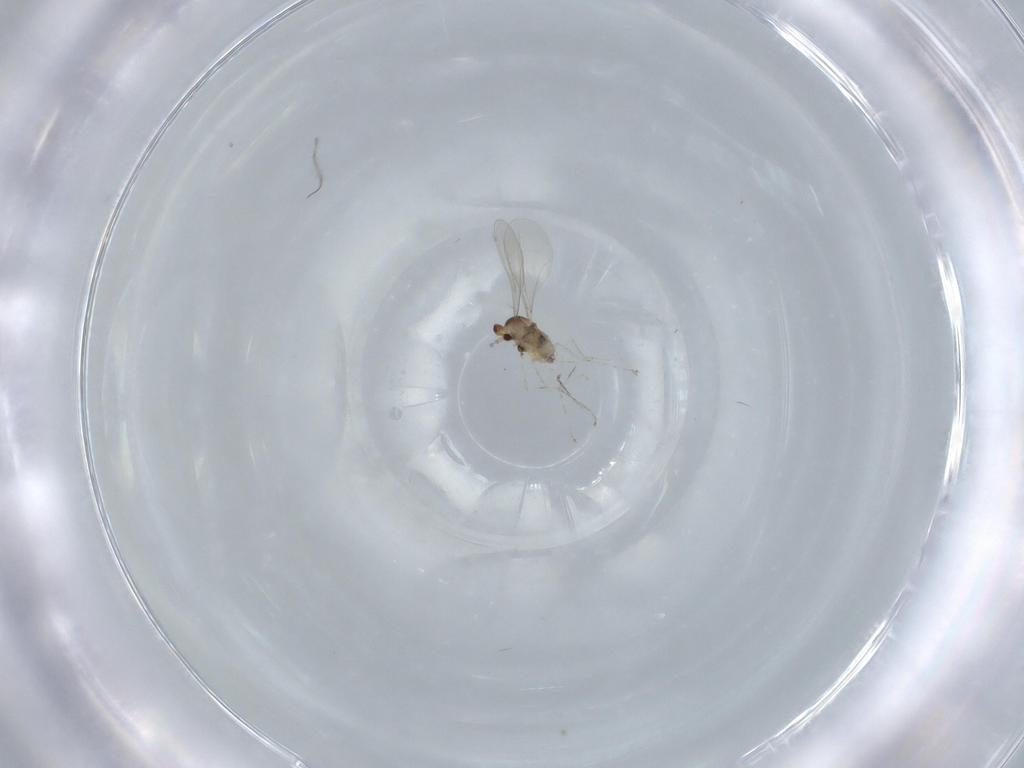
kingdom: Animalia
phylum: Arthropoda
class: Insecta
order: Diptera
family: Cecidomyiidae
